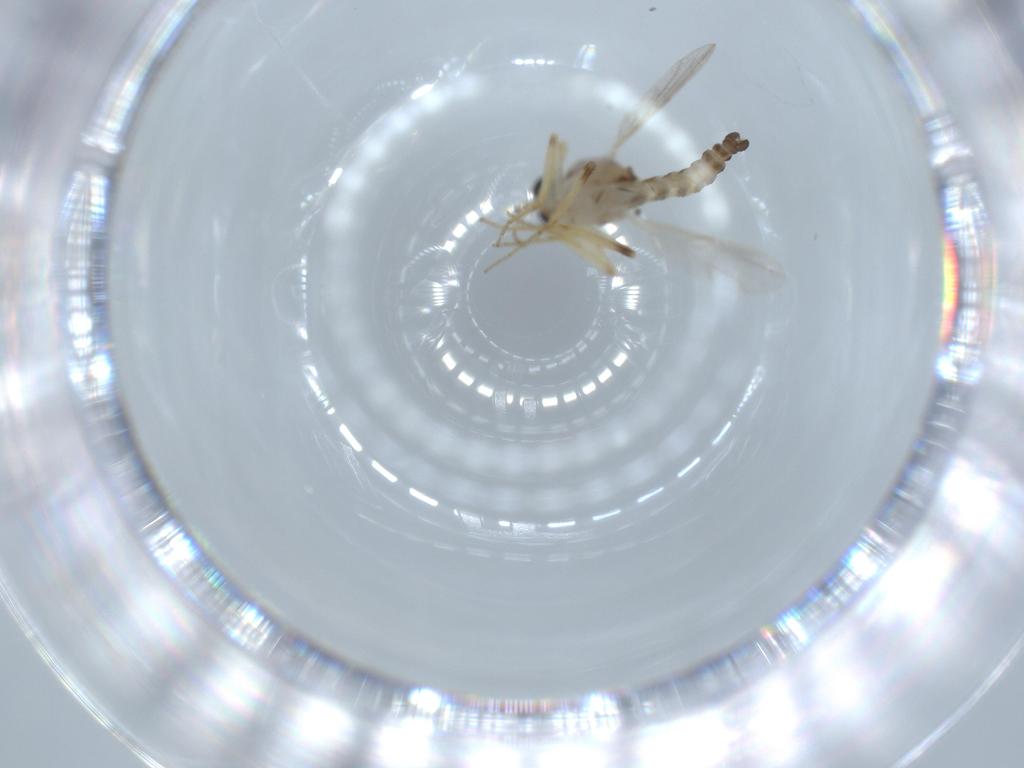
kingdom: Animalia
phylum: Arthropoda
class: Insecta
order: Diptera
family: Ceratopogonidae
